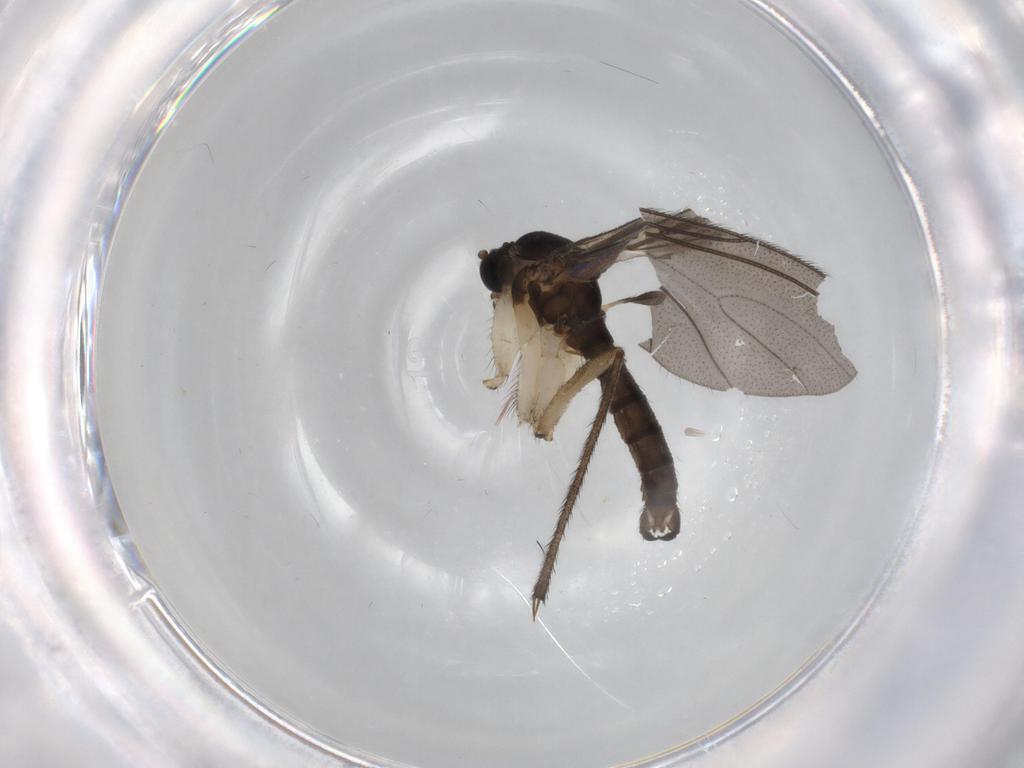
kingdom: Animalia
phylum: Arthropoda
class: Insecta
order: Diptera
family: Sciaridae
